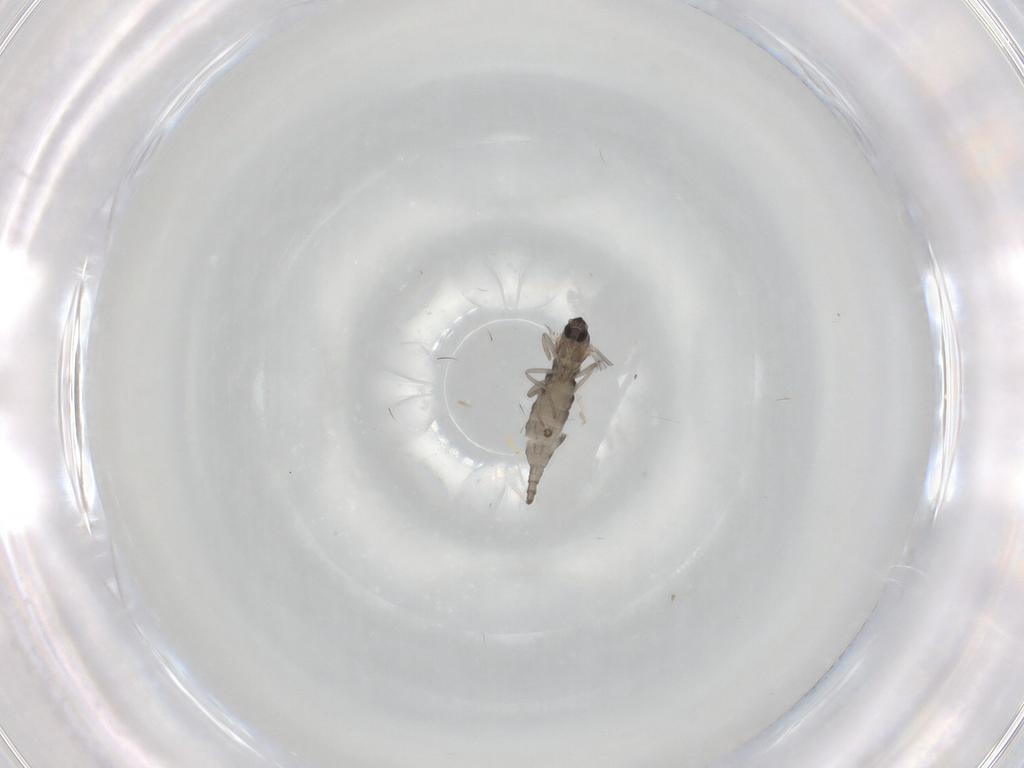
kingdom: Animalia
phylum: Arthropoda
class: Insecta
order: Diptera
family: Cecidomyiidae
